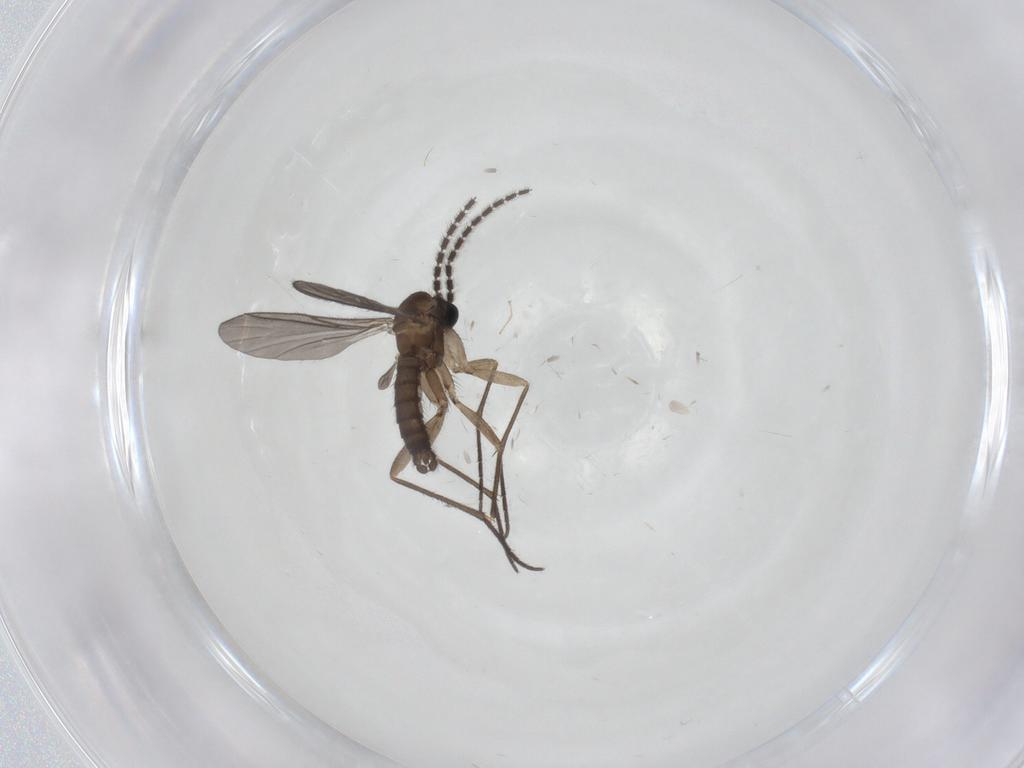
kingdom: Animalia
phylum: Arthropoda
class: Insecta
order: Diptera
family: Sciaridae
